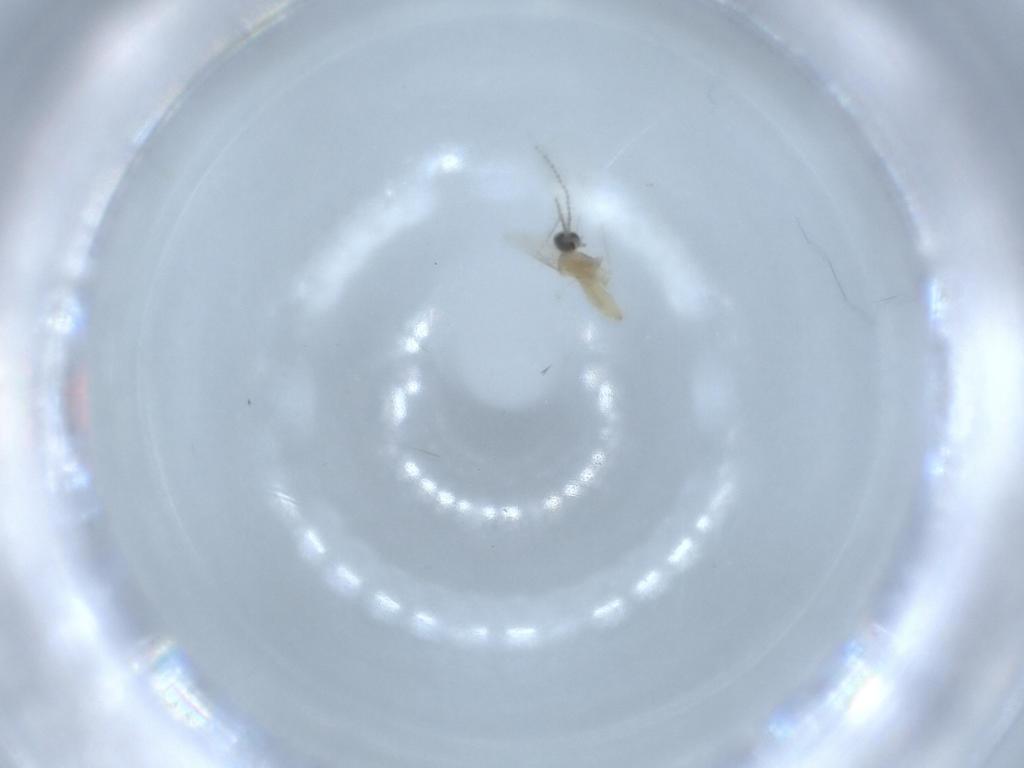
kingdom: Animalia
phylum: Arthropoda
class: Insecta
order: Diptera
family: Cecidomyiidae
